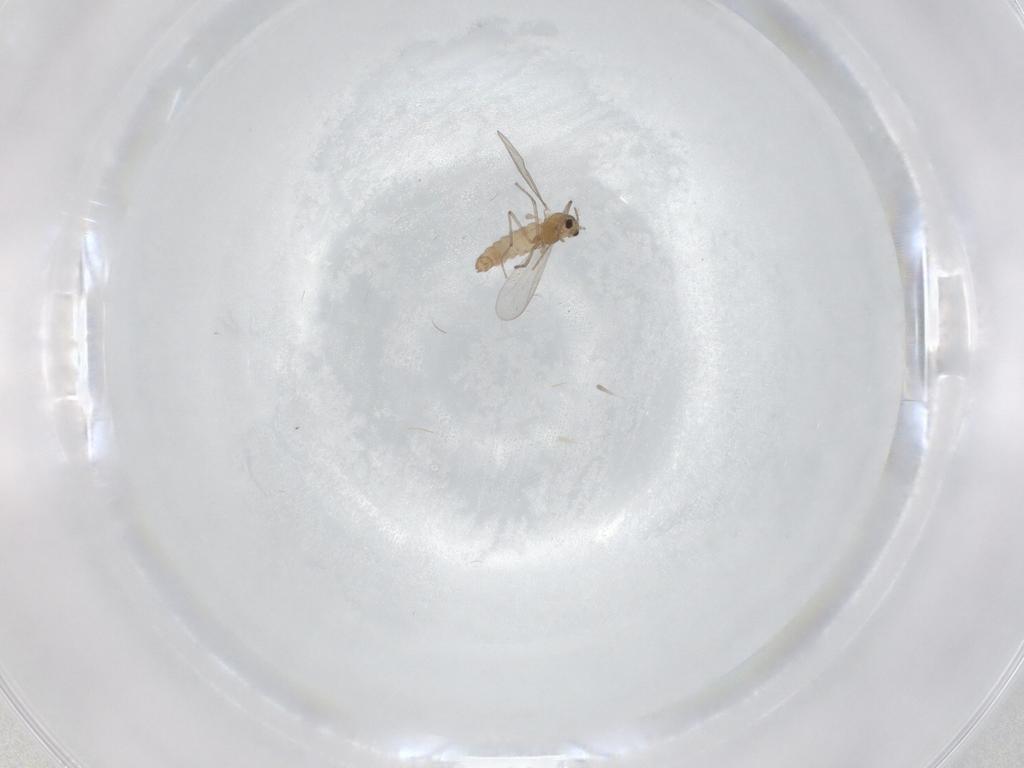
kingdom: Animalia
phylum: Arthropoda
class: Insecta
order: Diptera
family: Chironomidae
